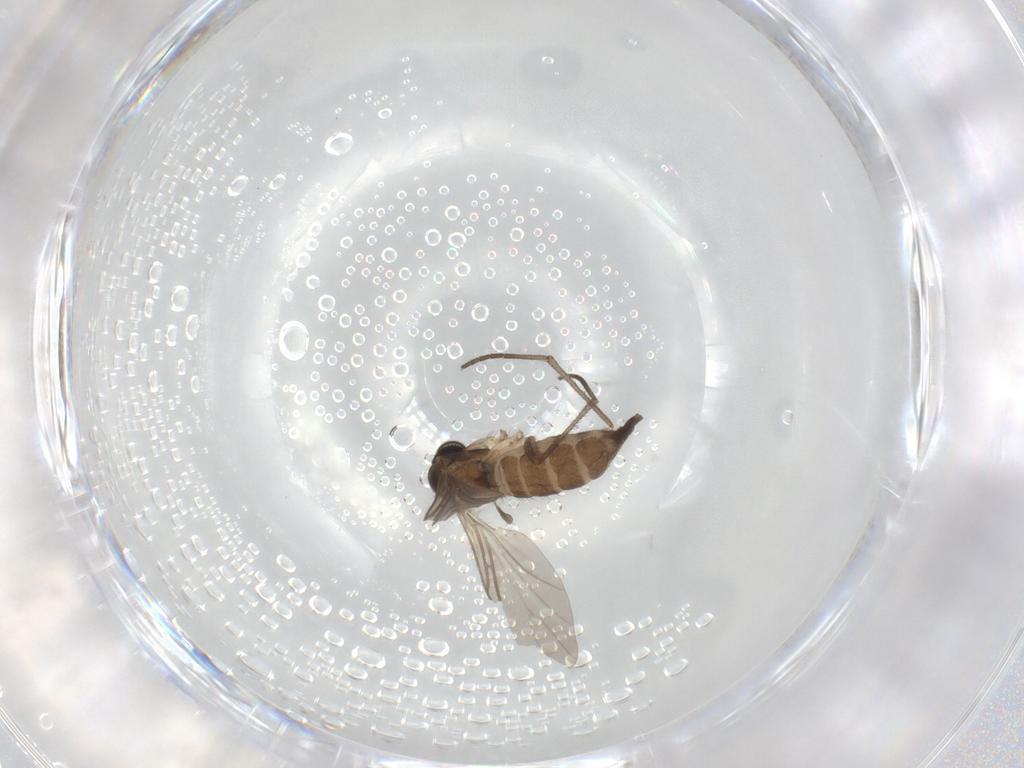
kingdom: Animalia
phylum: Arthropoda
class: Insecta
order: Diptera
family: Sciaridae
